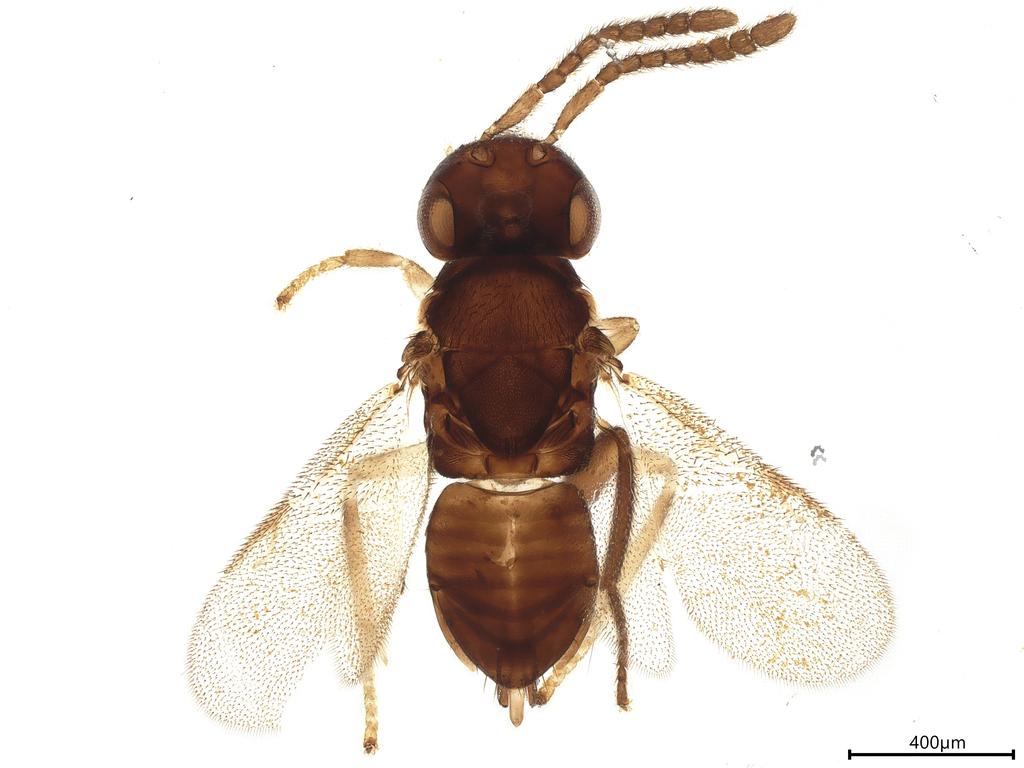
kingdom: Animalia
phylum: Arthropoda
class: Insecta
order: Hymenoptera
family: Encyrtidae
